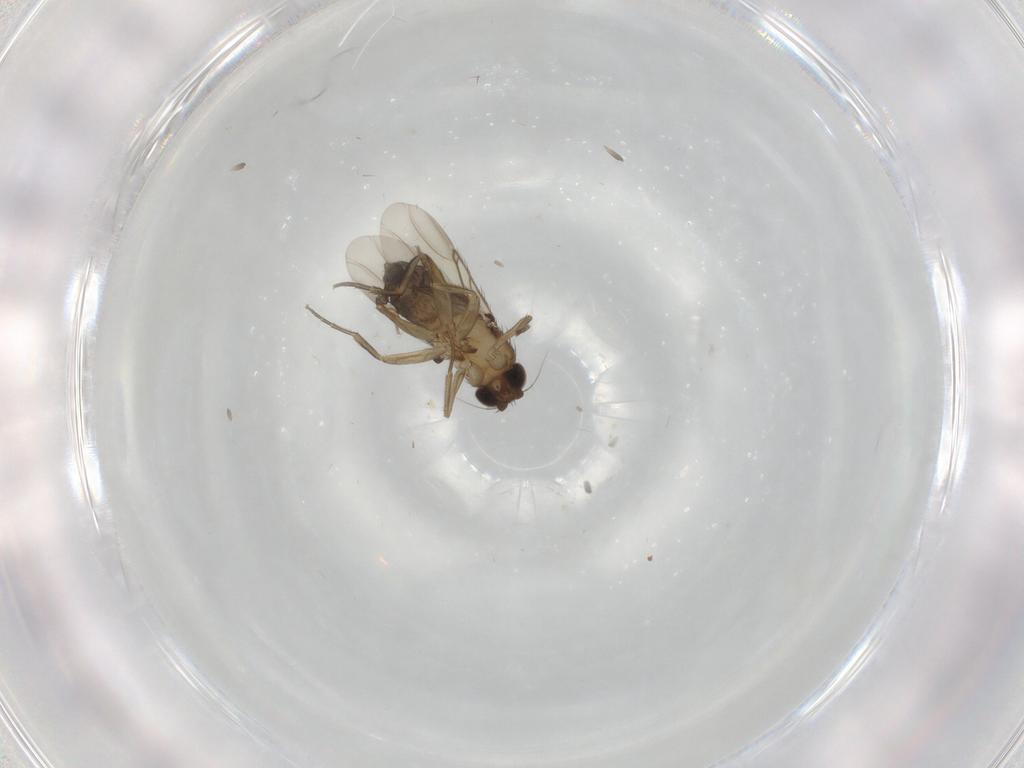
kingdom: Animalia
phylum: Arthropoda
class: Insecta
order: Diptera
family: Phoridae
